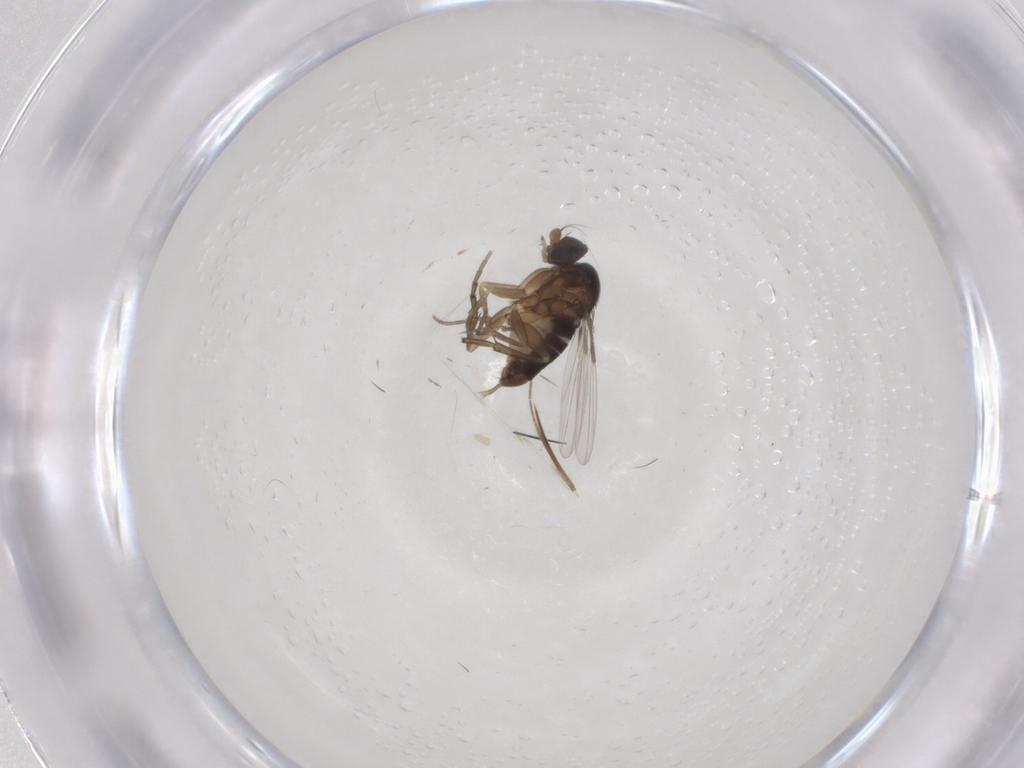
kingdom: Animalia
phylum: Arthropoda
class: Insecta
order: Diptera
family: Phoridae
